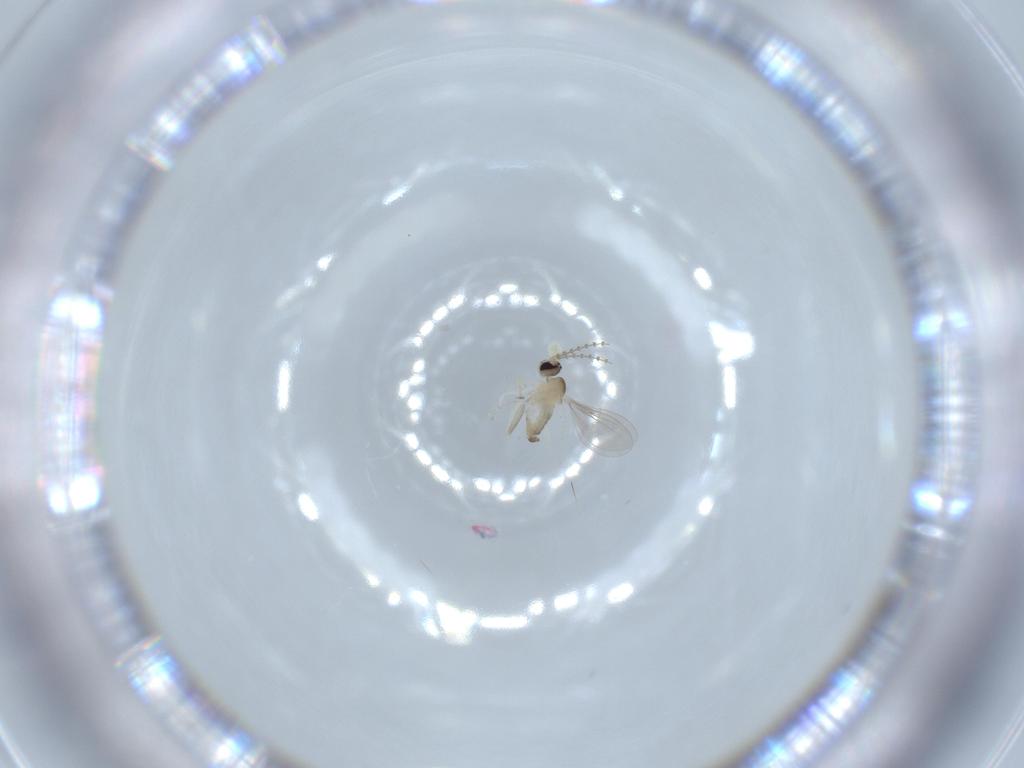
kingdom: Animalia
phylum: Arthropoda
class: Insecta
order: Diptera
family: Cecidomyiidae
